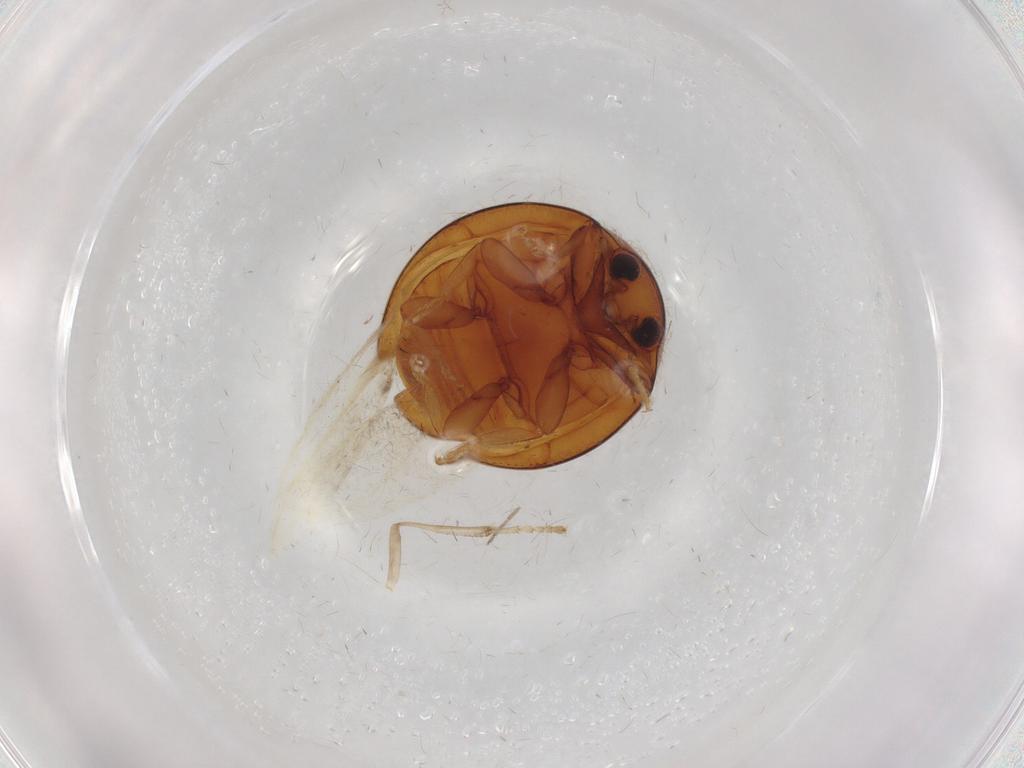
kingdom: Animalia
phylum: Arthropoda
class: Insecta
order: Coleoptera
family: Coccinellidae
